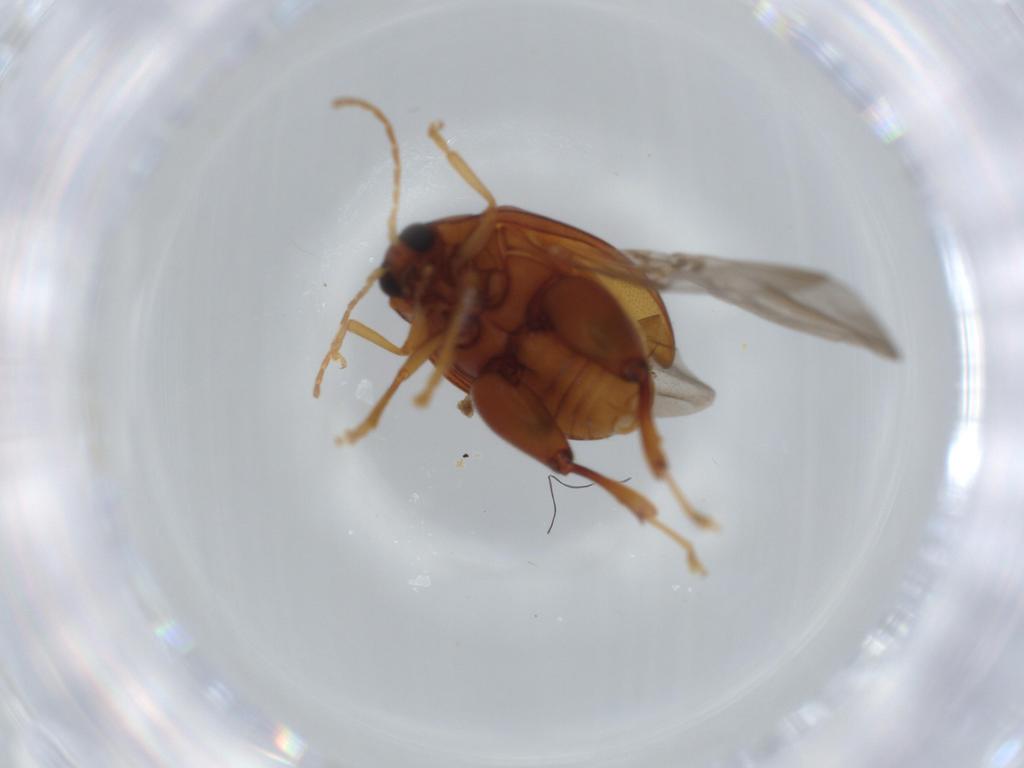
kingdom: Animalia
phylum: Arthropoda
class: Insecta
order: Coleoptera
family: Chrysomelidae
